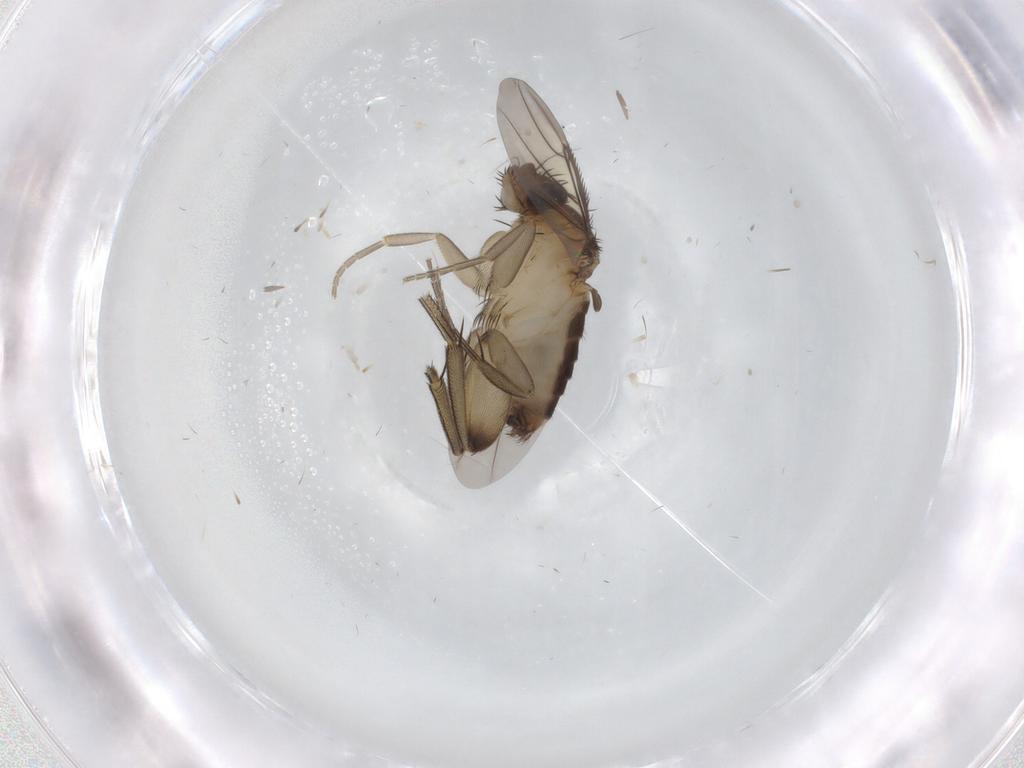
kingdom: Animalia
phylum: Arthropoda
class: Insecta
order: Diptera
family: Phoridae
